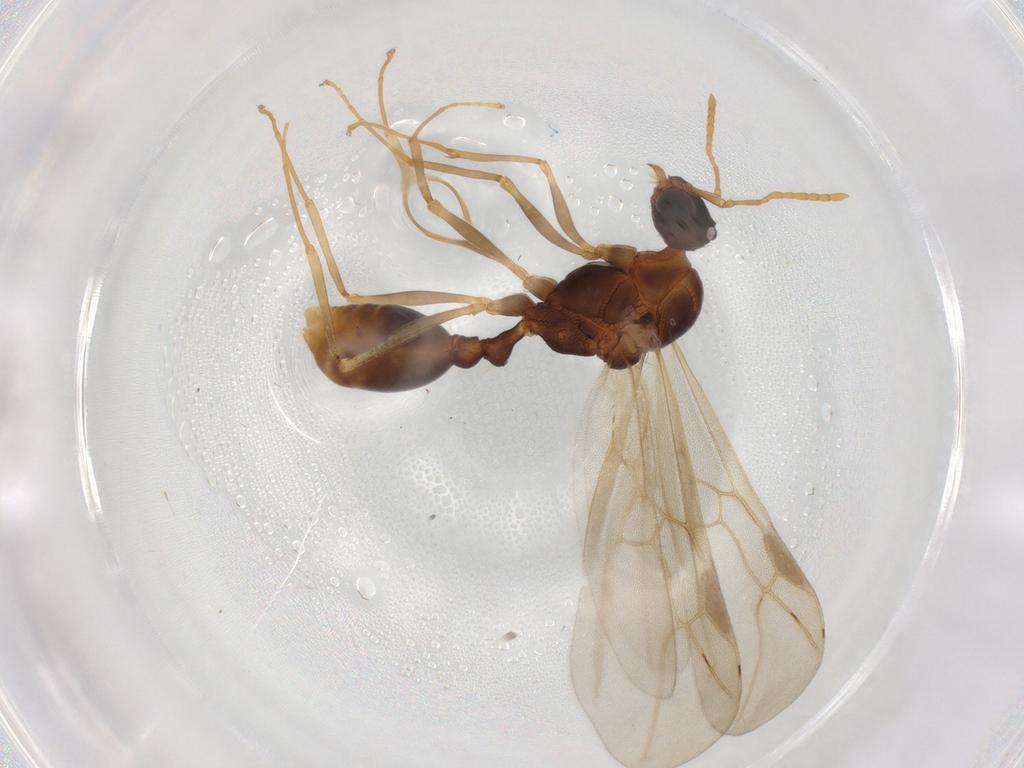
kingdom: Animalia
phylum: Arthropoda
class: Insecta
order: Hymenoptera
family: Formicidae
